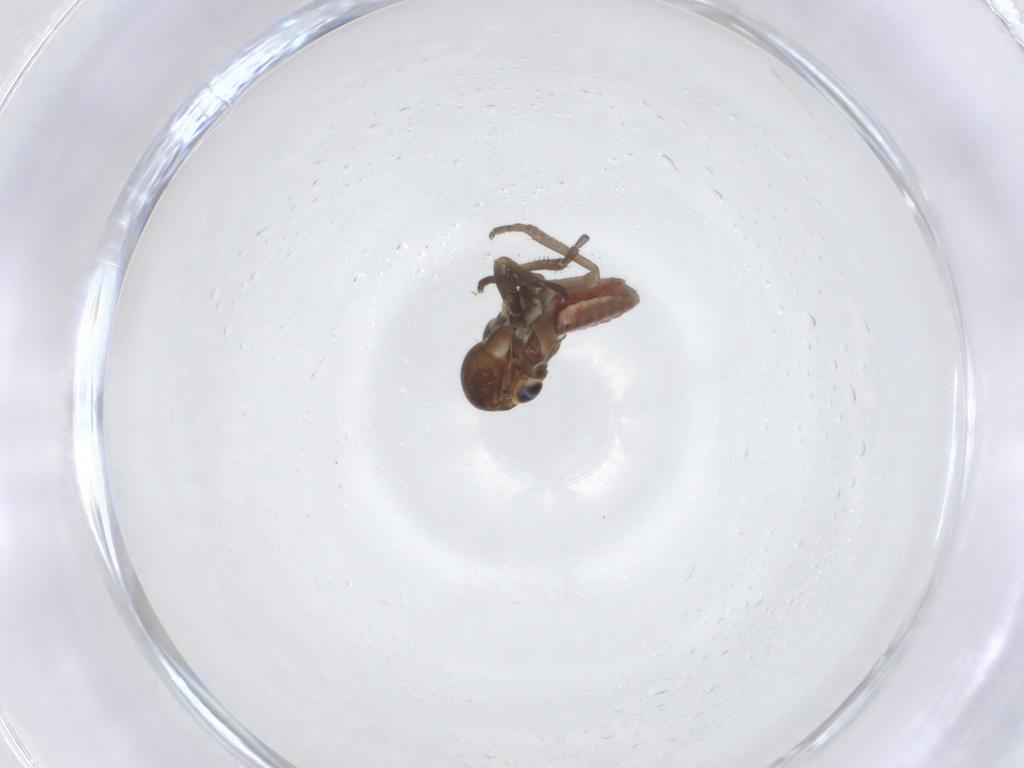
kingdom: Animalia
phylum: Arthropoda
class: Insecta
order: Hemiptera
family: Cicadellidae
